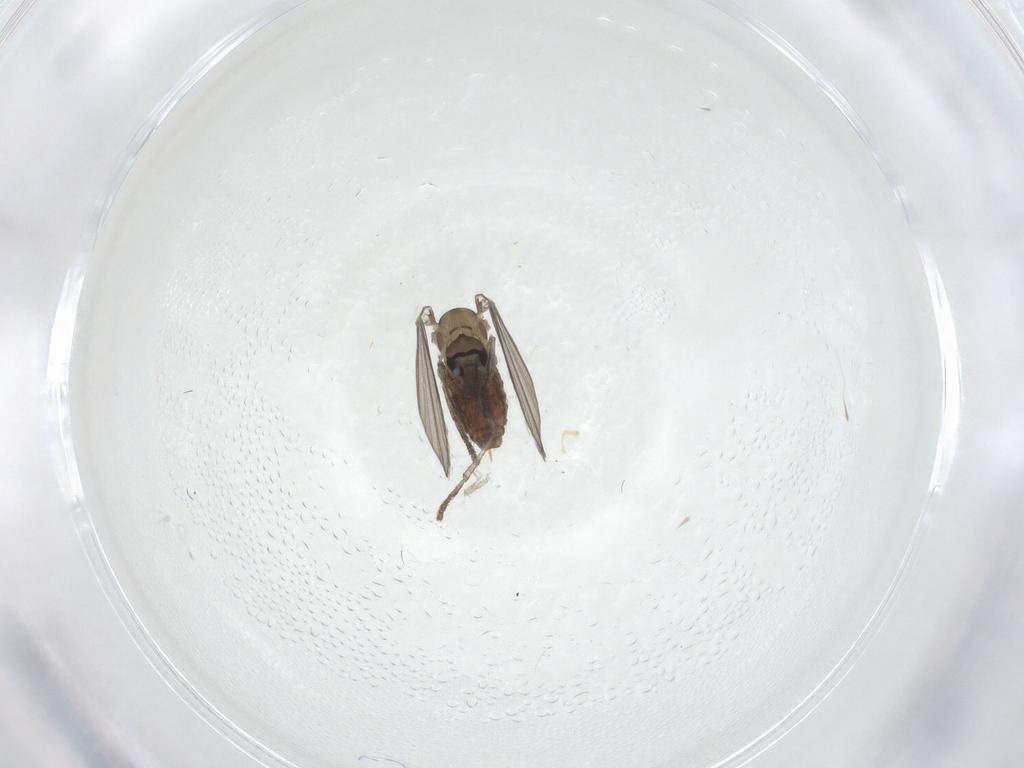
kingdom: Animalia
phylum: Arthropoda
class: Insecta
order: Diptera
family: Psychodidae
